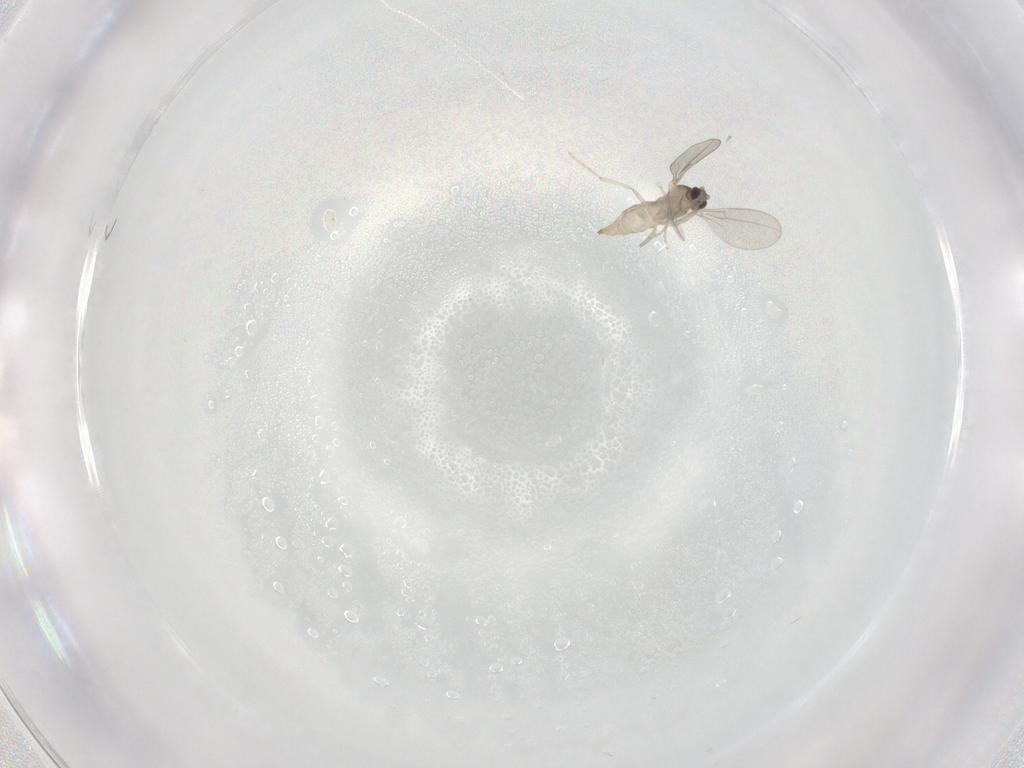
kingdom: Animalia
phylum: Arthropoda
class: Insecta
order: Diptera
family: Cecidomyiidae
